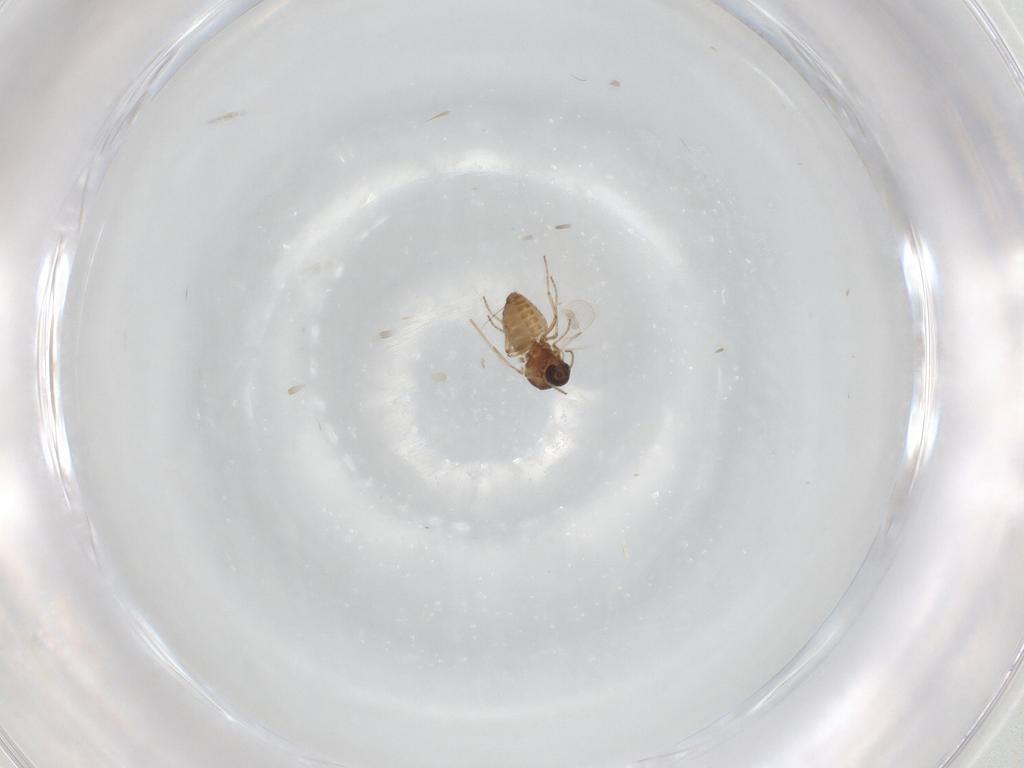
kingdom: Animalia
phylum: Arthropoda
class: Insecta
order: Diptera
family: Ceratopogonidae
